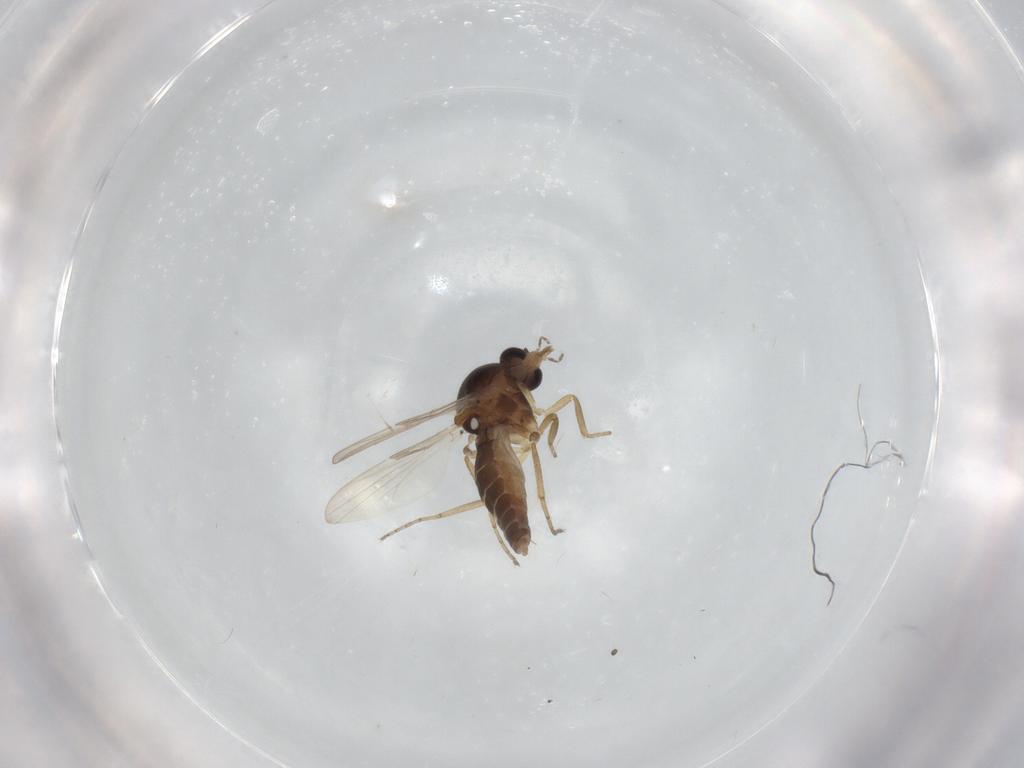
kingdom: Animalia
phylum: Arthropoda
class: Insecta
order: Diptera
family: Ceratopogonidae
